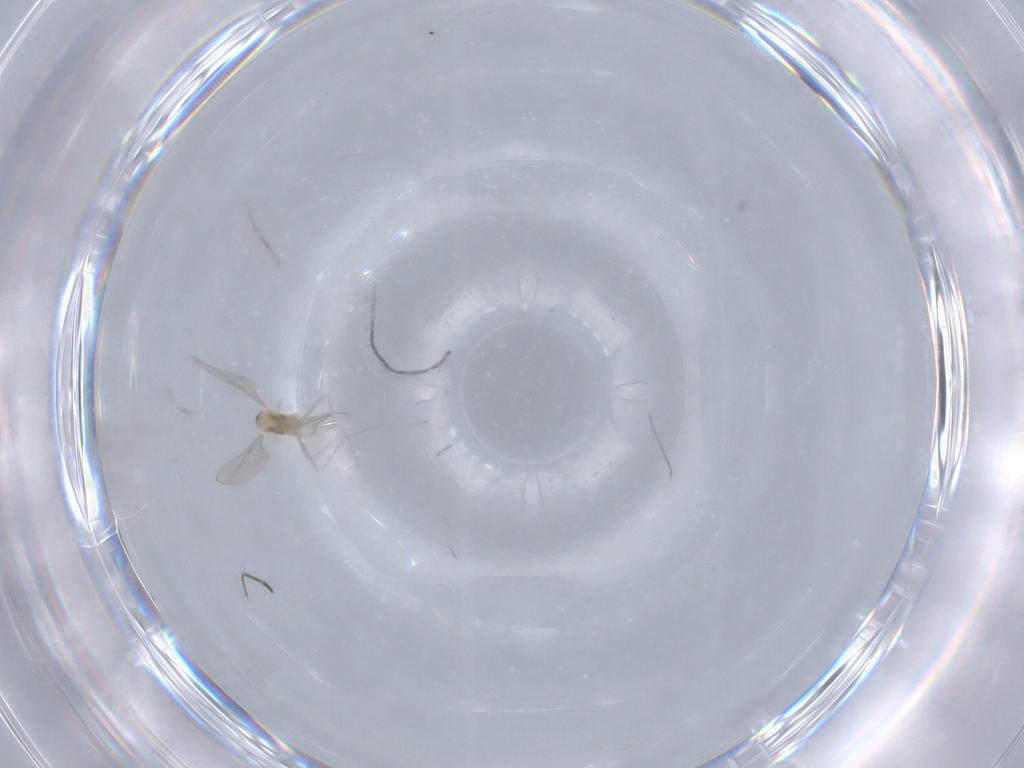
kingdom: Animalia
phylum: Arthropoda
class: Insecta
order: Diptera
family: Cecidomyiidae
